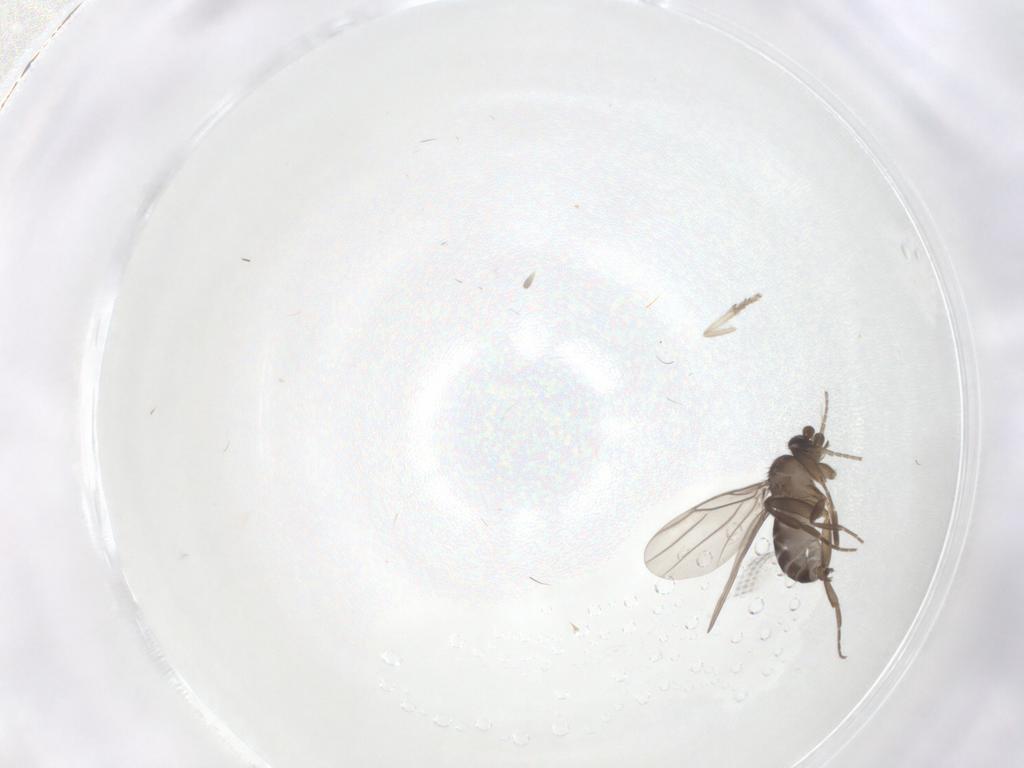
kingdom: Animalia
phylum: Arthropoda
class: Insecta
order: Diptera
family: Psychodidae
